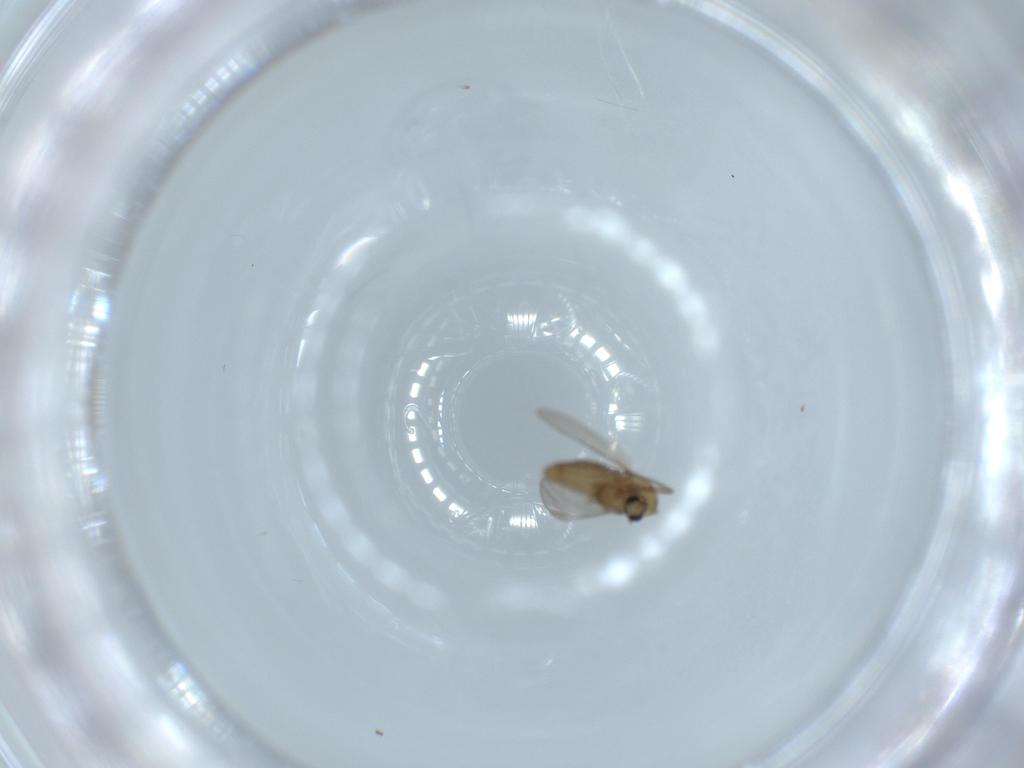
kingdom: Animalia
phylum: Arthropoda
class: Insecta
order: Diptera
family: Chironomidae
